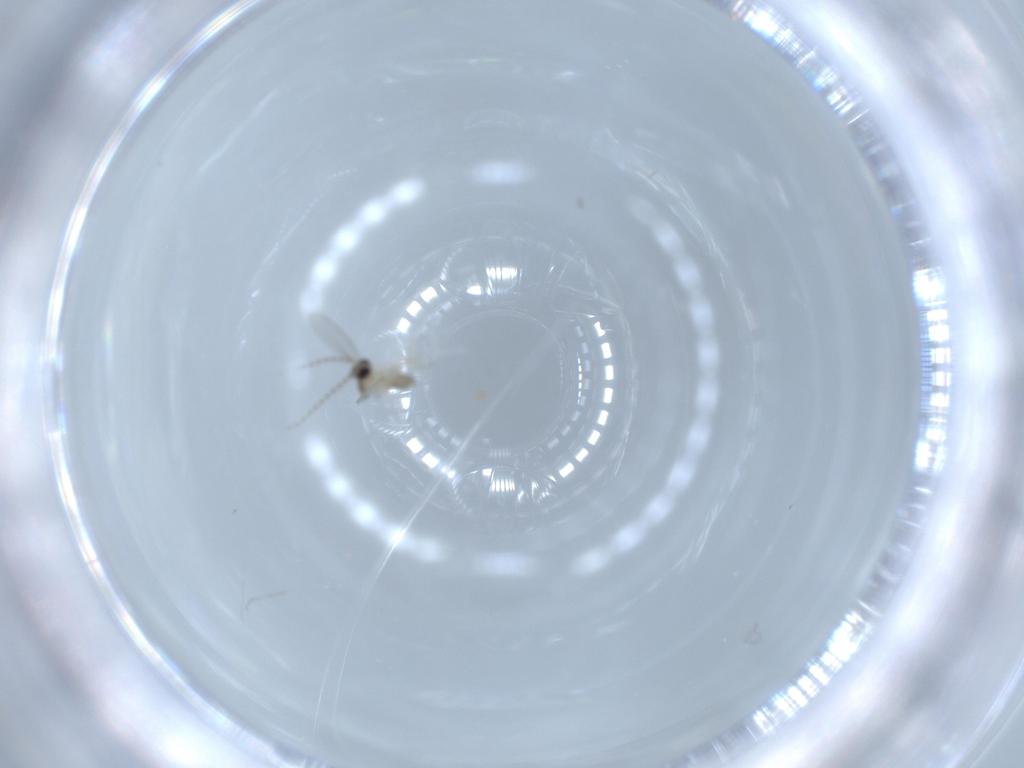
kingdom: Animalia
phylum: Arthropoda
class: Insecta
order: Diptera
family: Cecidomyiidae
